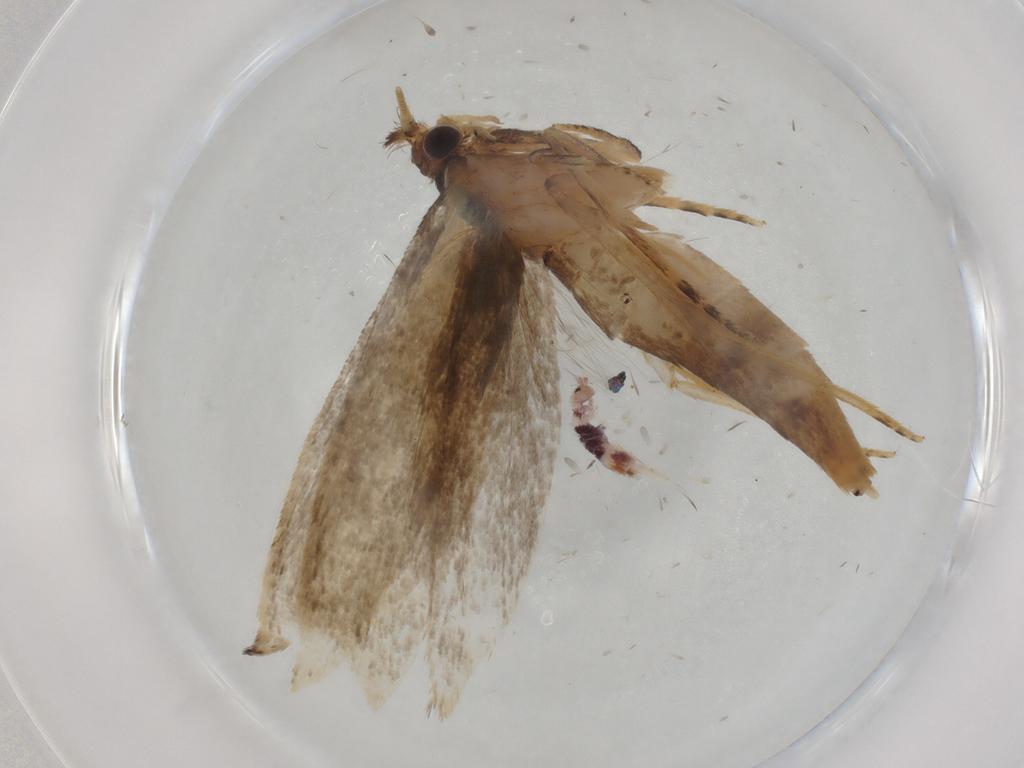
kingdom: Animalia
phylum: Arthropoda
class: Insecta
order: Lepidoptera
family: Tineidae
